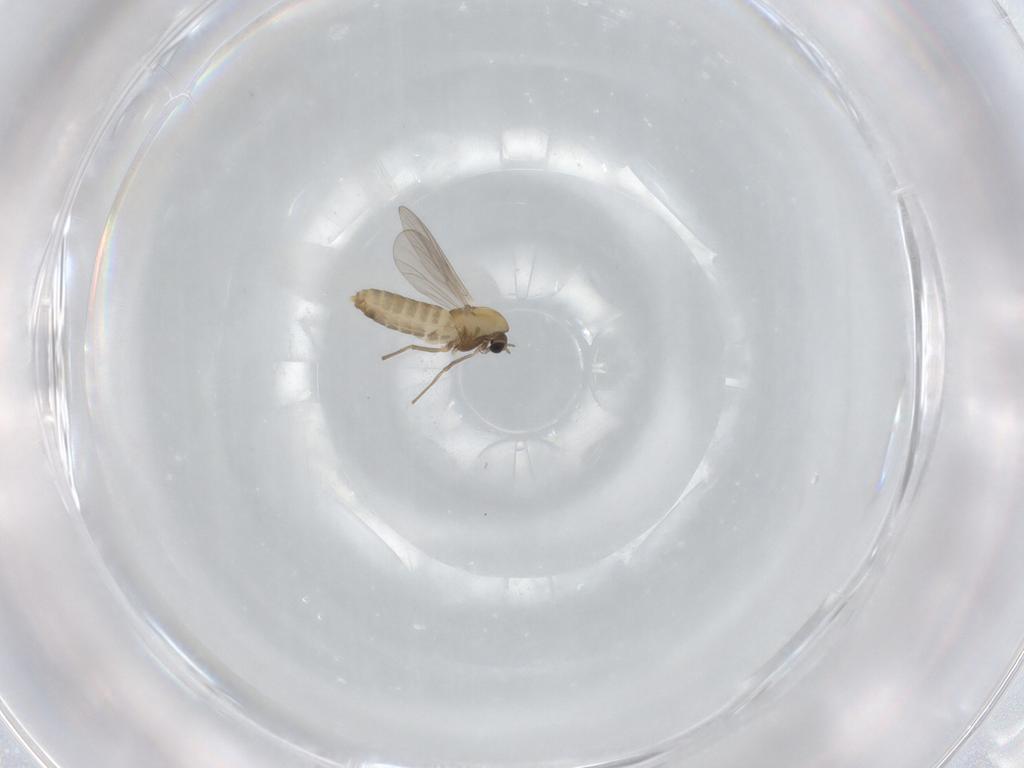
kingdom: Animalia
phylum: Arthropoda
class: Insecta
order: Diptera
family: Chironomidae
